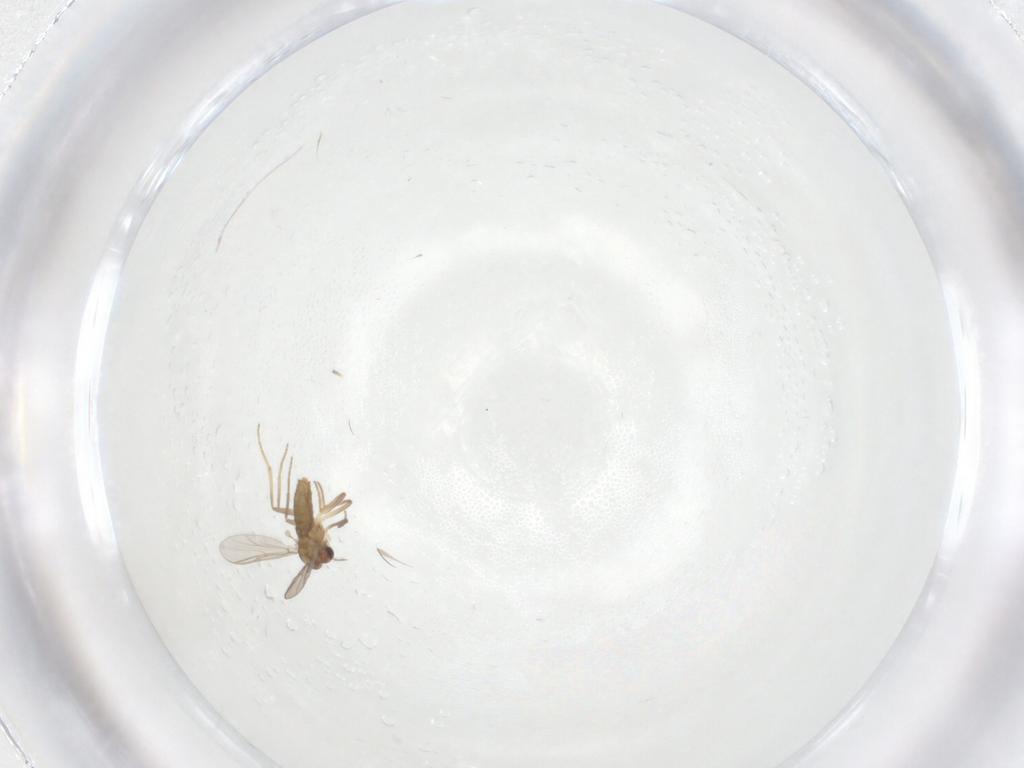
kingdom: Animalia
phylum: Arthropoda
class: Insecta
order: Diptera
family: Chironomidae
